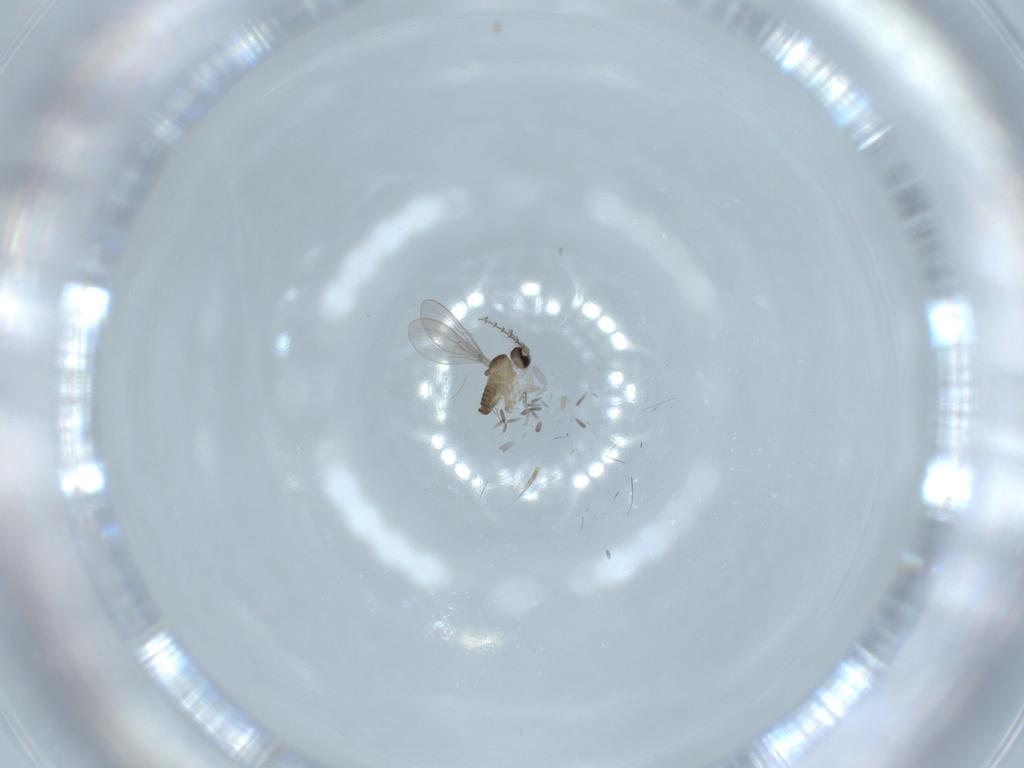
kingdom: Animalia
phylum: Arthropoda
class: Insecta
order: Diptera
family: Cecidomyiidae
